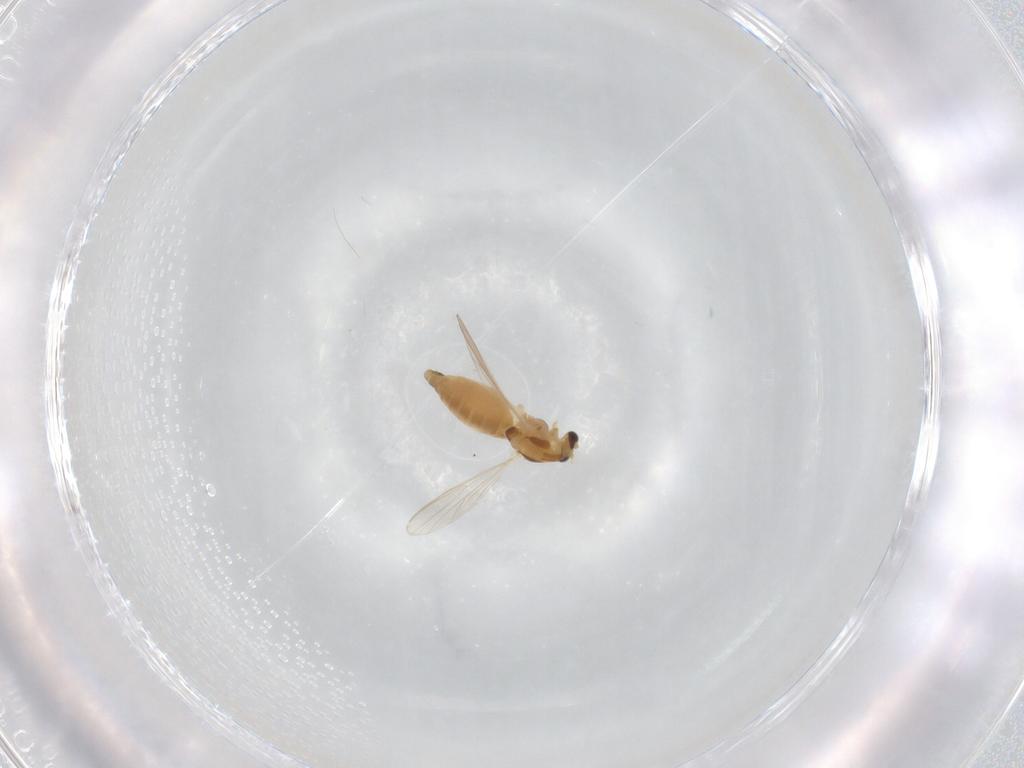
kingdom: Animalia
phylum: Arthropoda
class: Insecta
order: Diptera
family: Chironomidae
